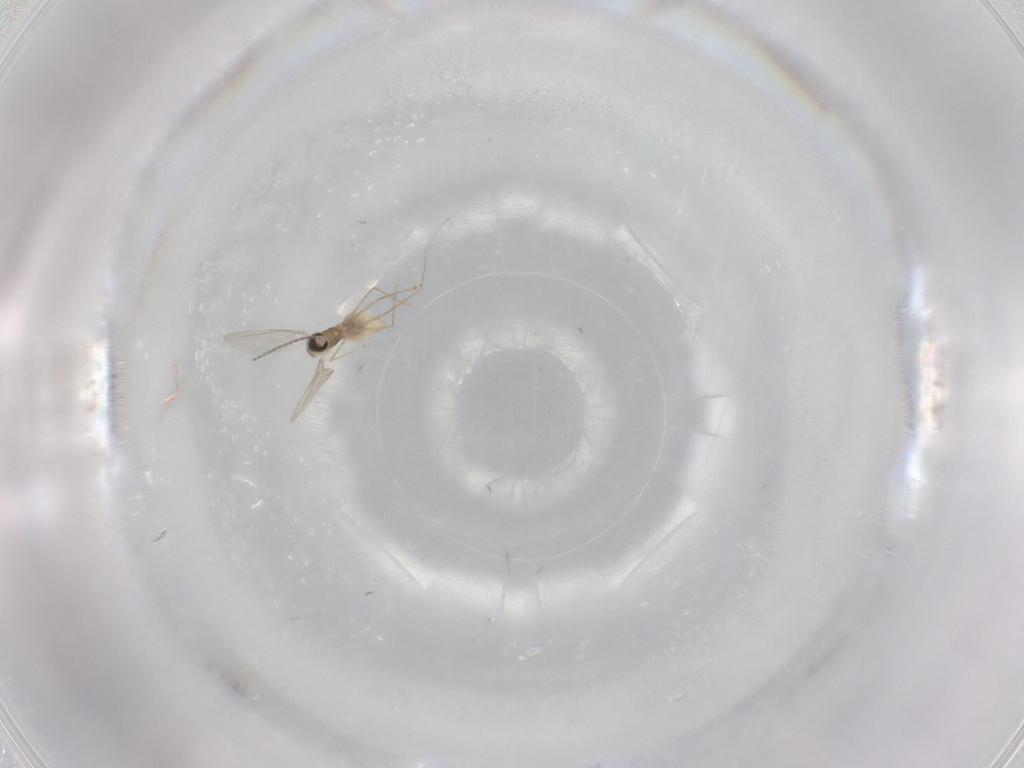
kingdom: Animalia
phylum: Arthropoda
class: Insecta
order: Diptera
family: Cecidomyiidae
